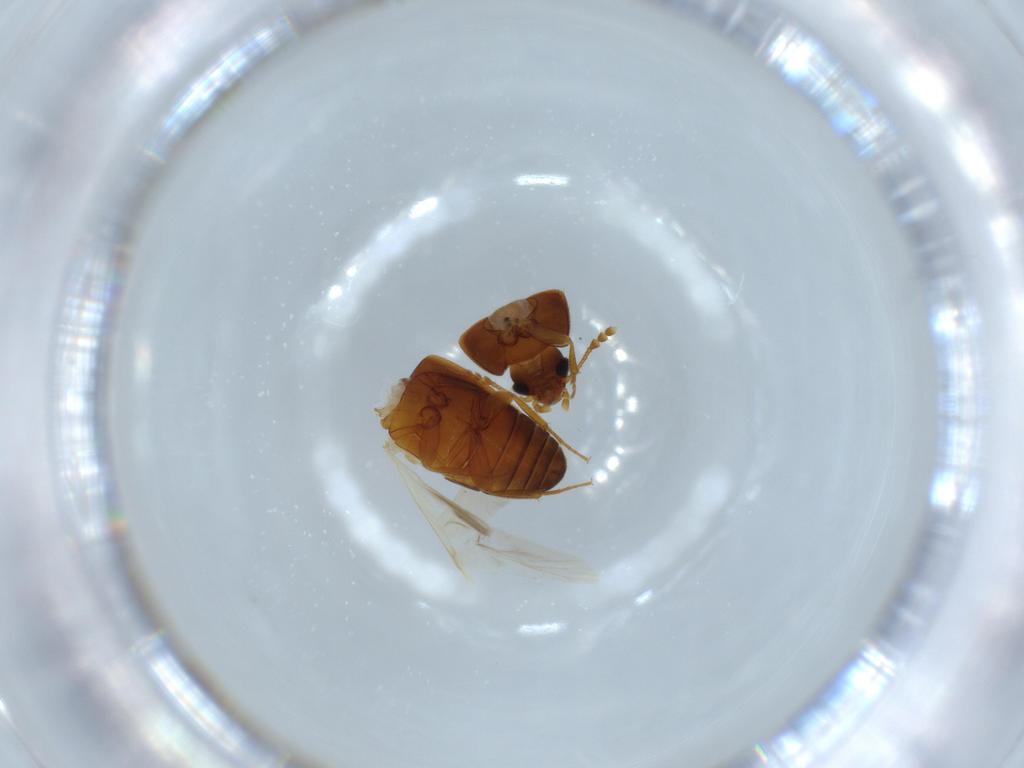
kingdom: Animalia
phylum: Arthropoda
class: Insecta
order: Coleoptera
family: Mycetophagidae
